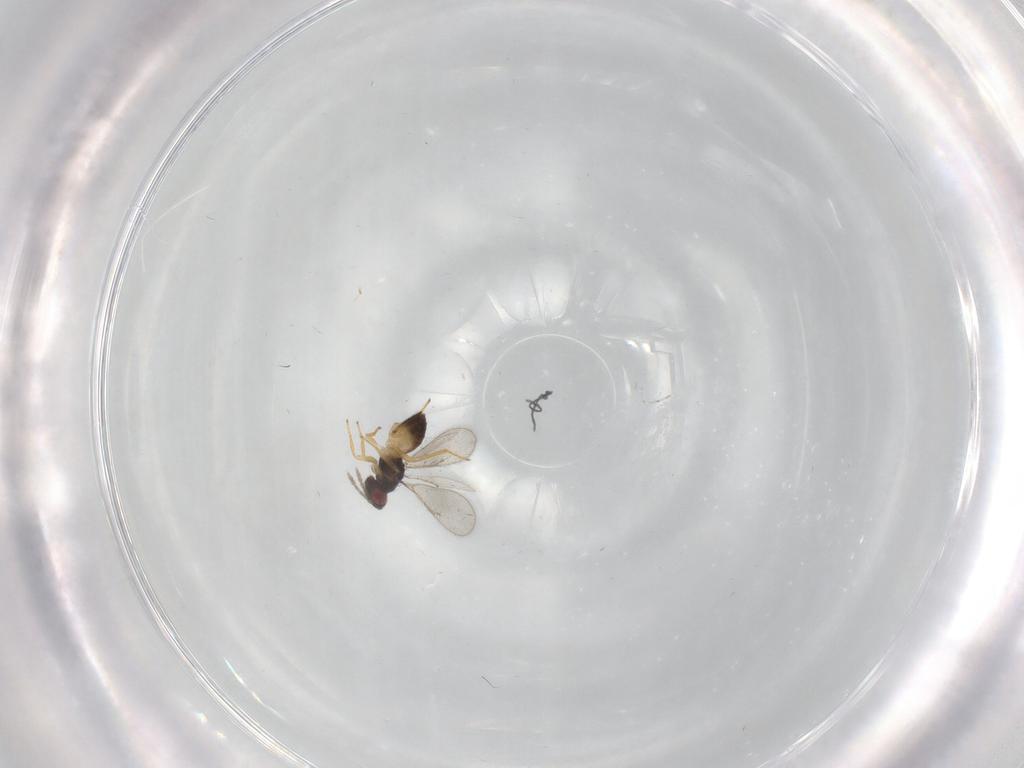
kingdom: Animalia
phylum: Arthropoda
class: Insecta
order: Hymenoptera
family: Eulophidae
